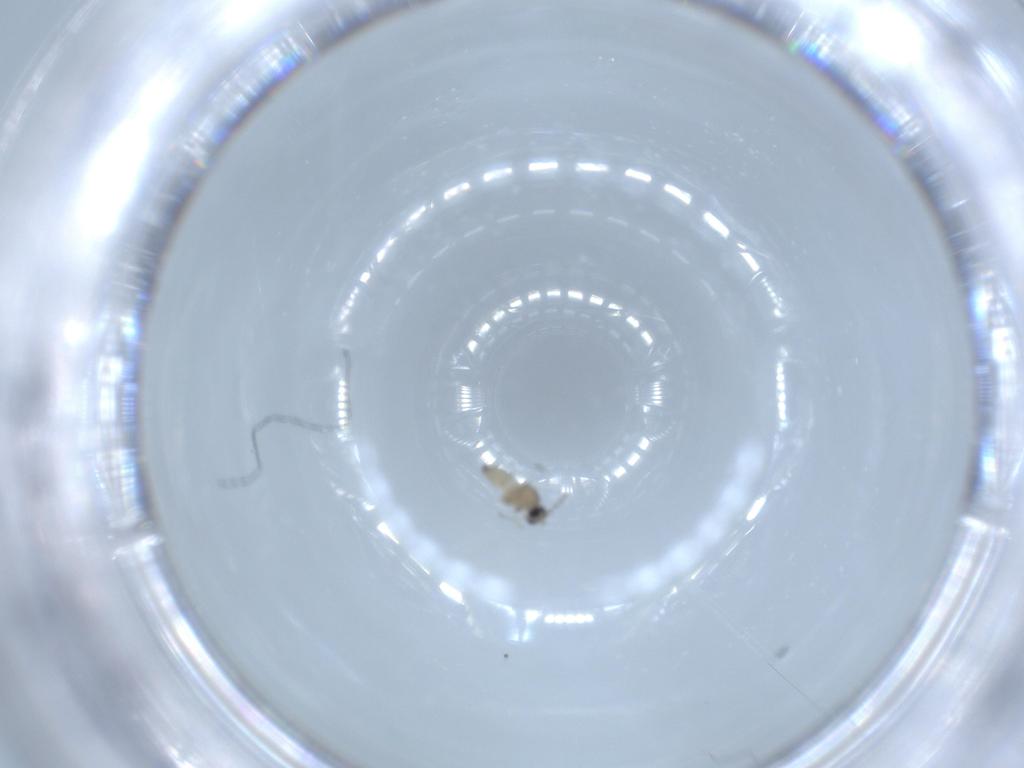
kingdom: Animalia
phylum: Arthropoda
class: Insecta
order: Diptera
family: Cecidomyiidae
